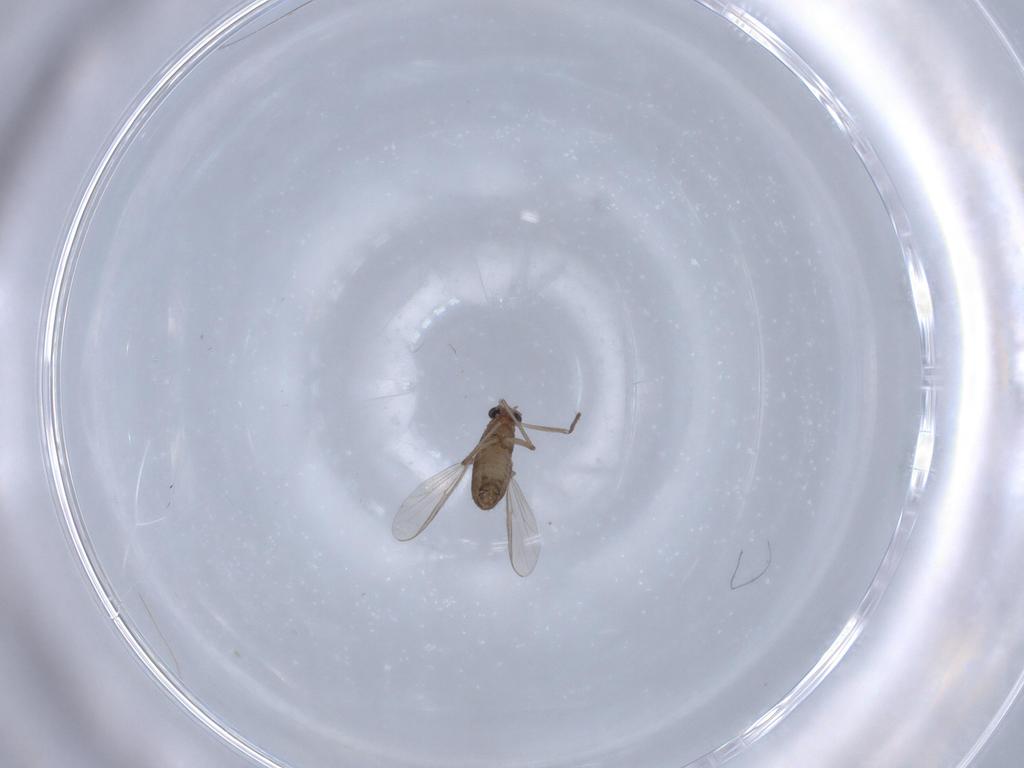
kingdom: Animalia
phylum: Arthropoda
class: Insecta
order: Diptera
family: Chironomidae
